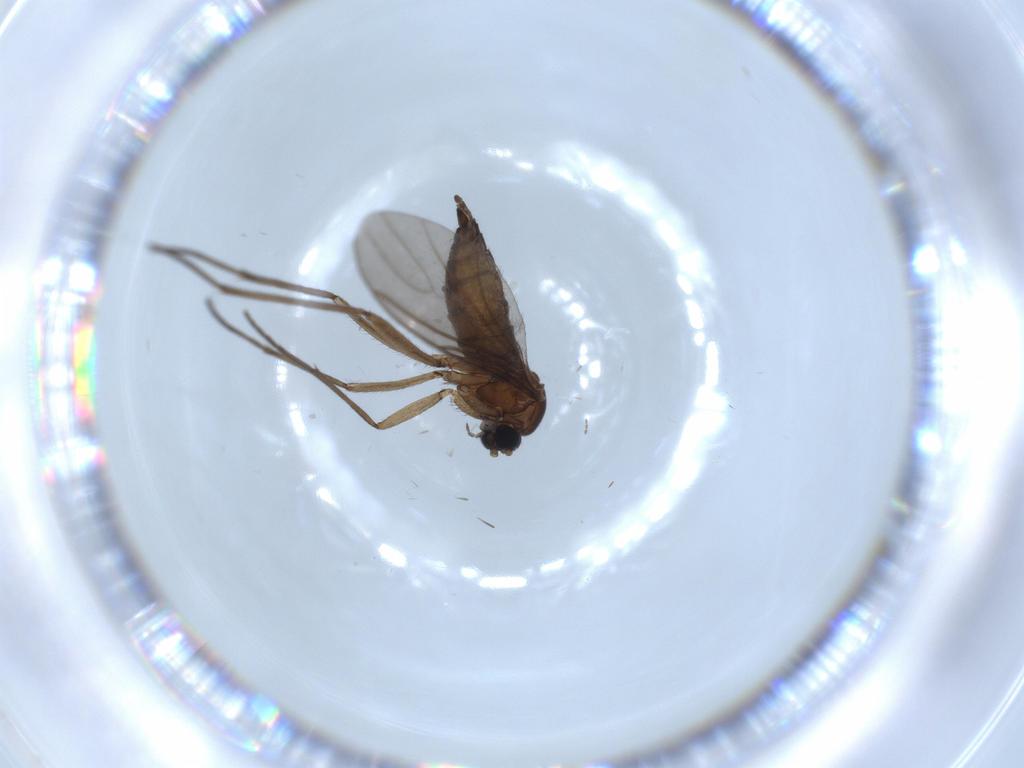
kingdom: Animalia
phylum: Arthropoda
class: Insecta
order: Diptera
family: Sciaridae
